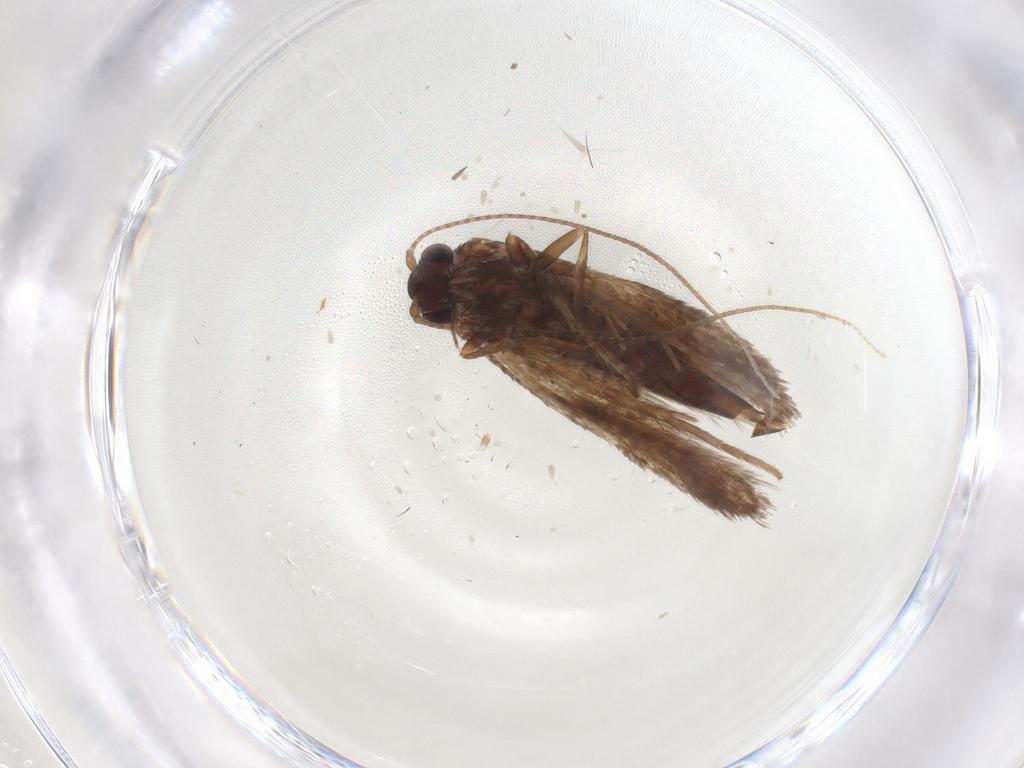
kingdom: Animalia
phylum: Arthropoda
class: Insecta
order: Lepidoptera
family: Adelidae
